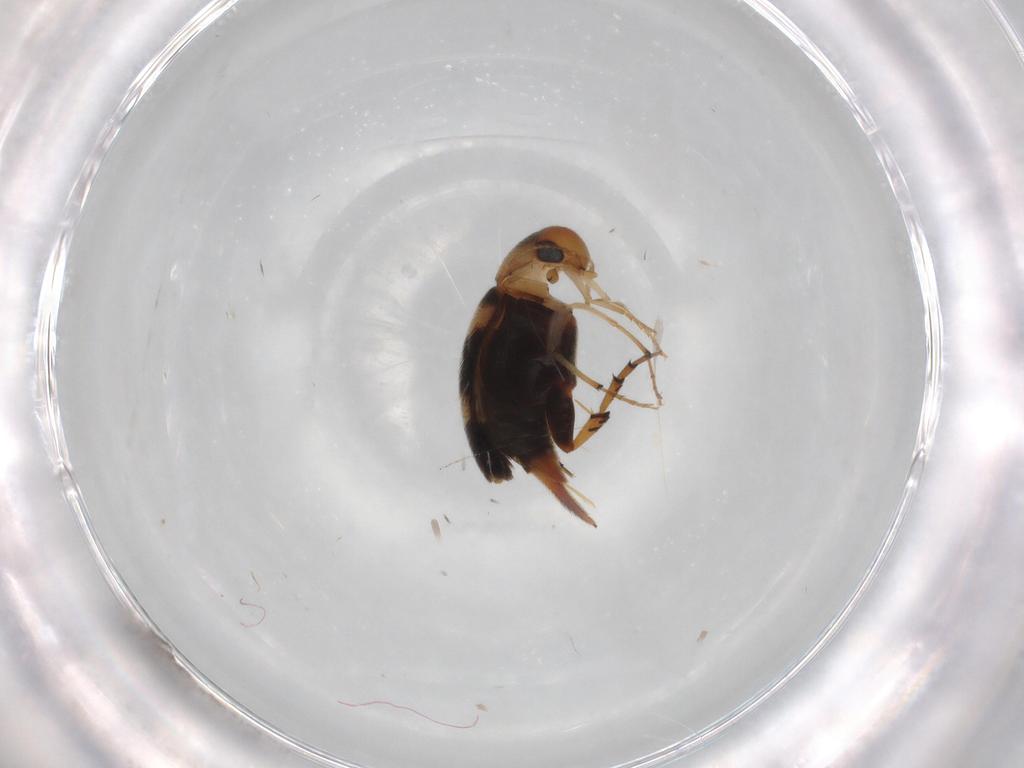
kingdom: Animalia
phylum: Arthropoda
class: Insecta
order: Coleoptera
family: Mordellidae
